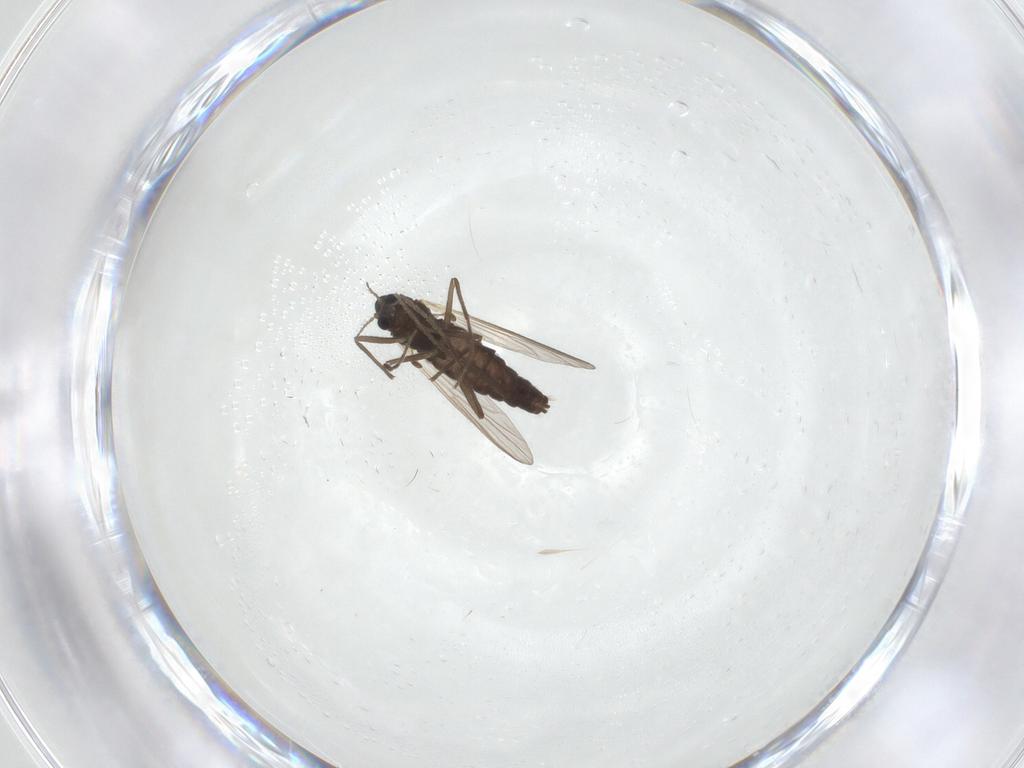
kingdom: Animalia
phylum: Arthropoda
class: Insecta
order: Diptera
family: Chironomidae
